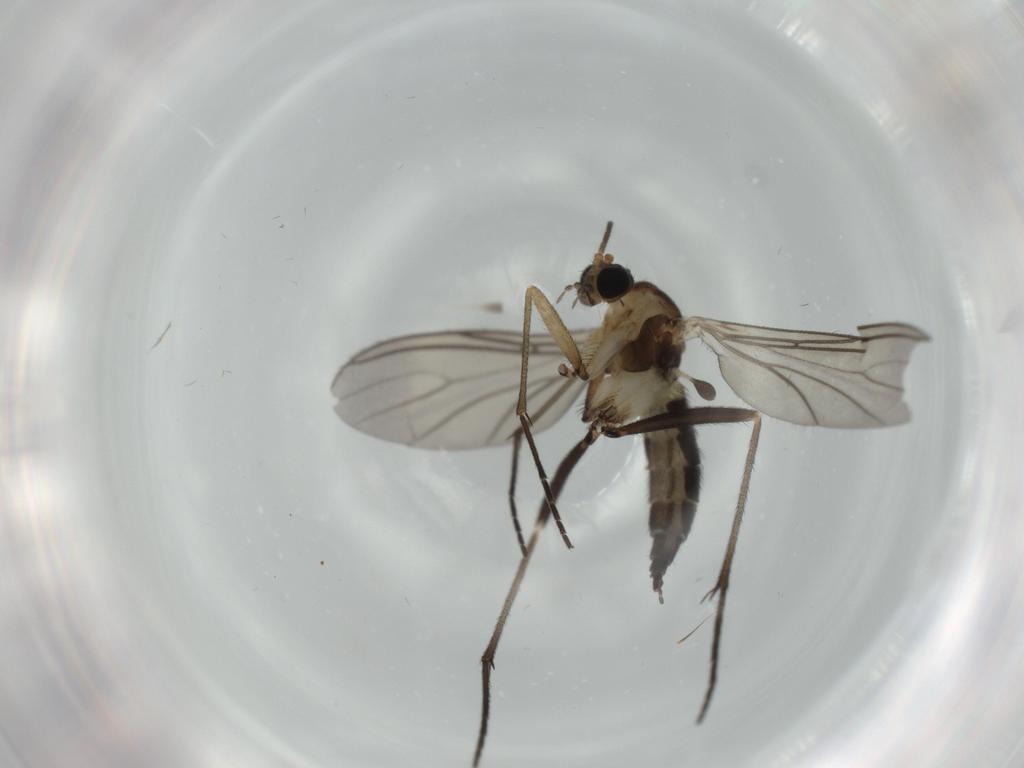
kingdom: Animalia
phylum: Arthropoda
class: Insecta
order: Diptera
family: Sciaridae
